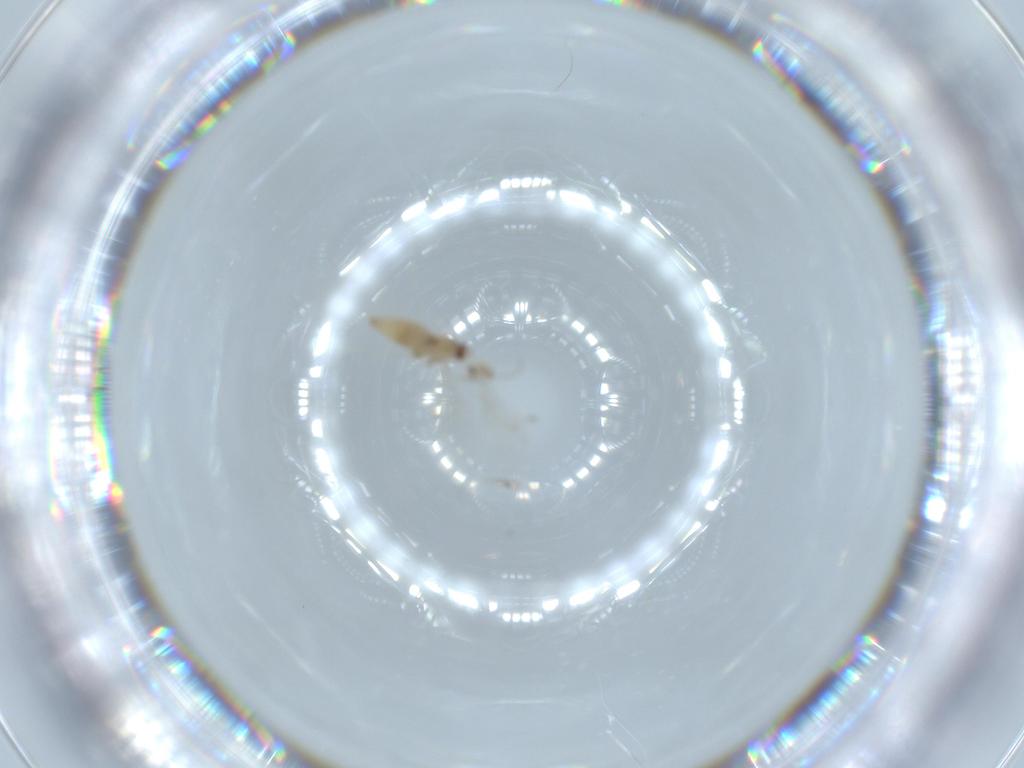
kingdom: Animalia
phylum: Arthropoda
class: Insecta
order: Diptera
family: Cecidomyiidae
